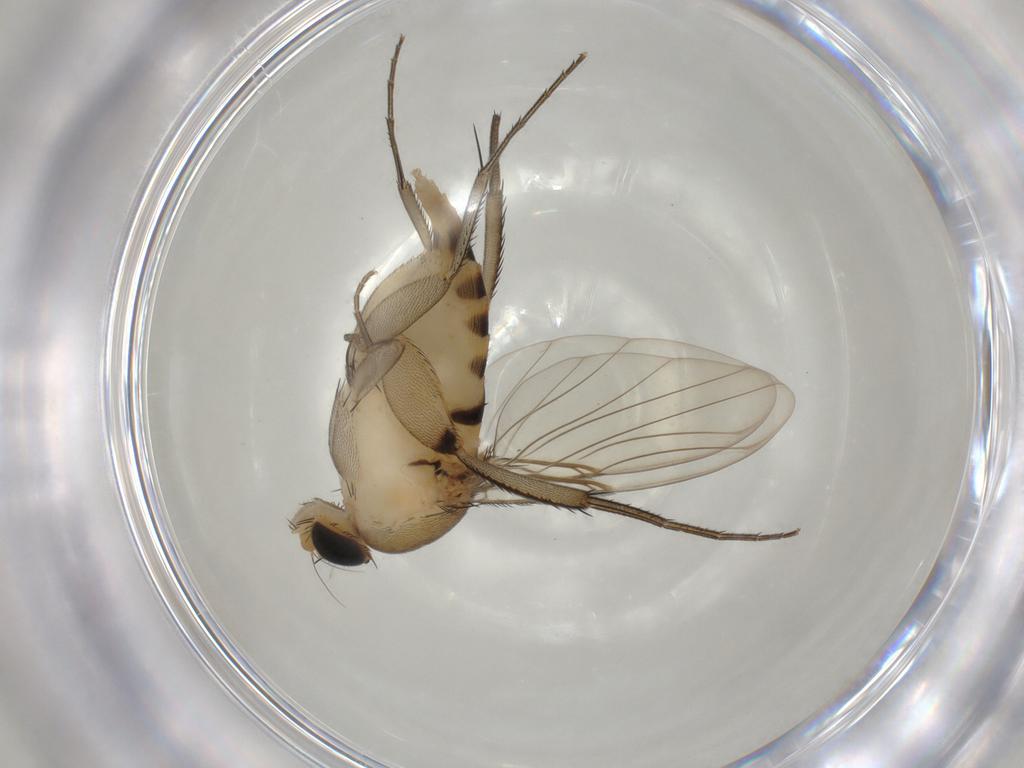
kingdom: Animalia
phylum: Arthropoda
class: Insecta
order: Diptera
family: Phoridae
